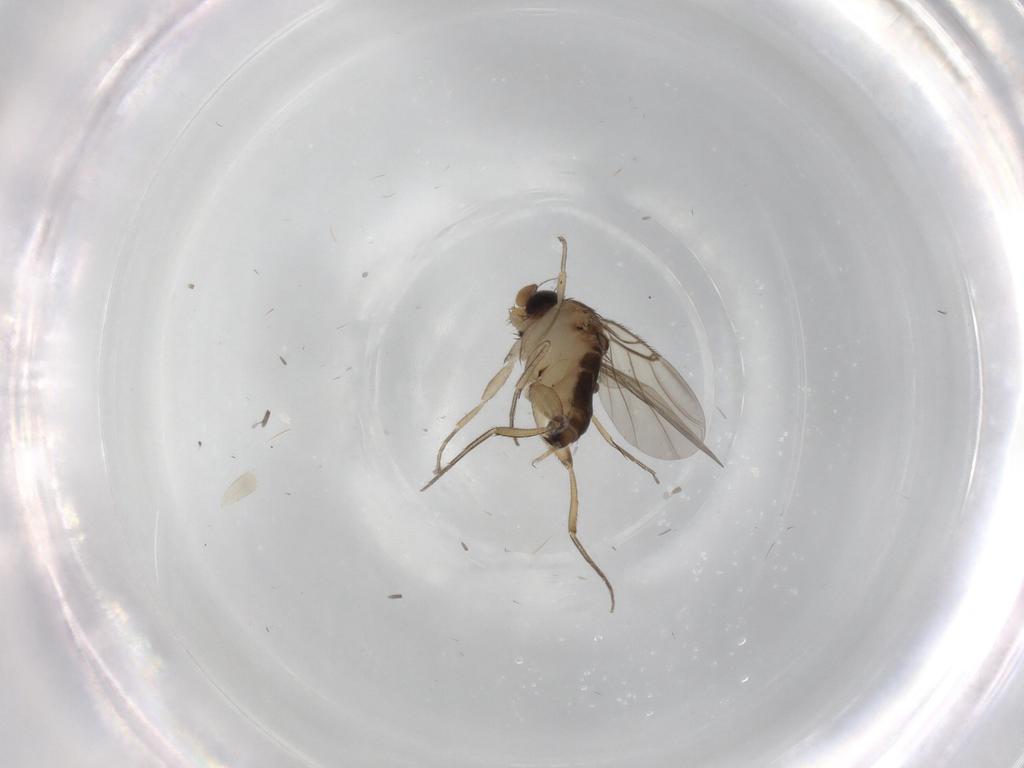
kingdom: Animalia
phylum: Arthropoda
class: Insecta
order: Diptera
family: Phoridae
